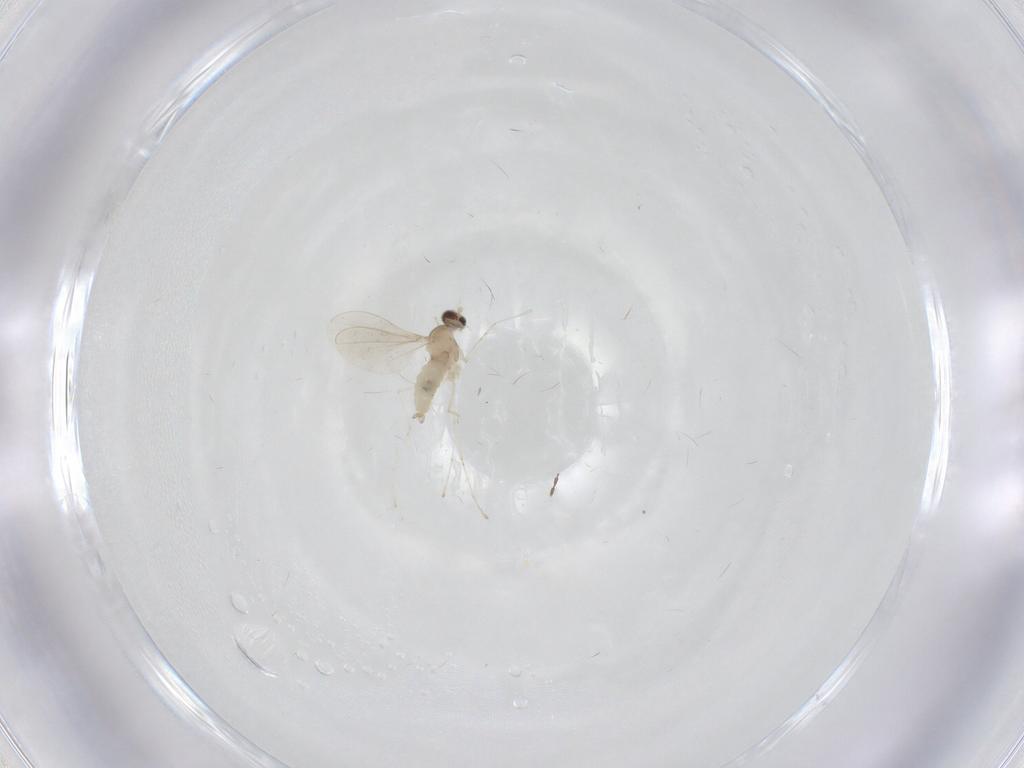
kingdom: Animalia
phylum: Arthropoda
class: Insecta
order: Diptera
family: Cecidomyiidae
